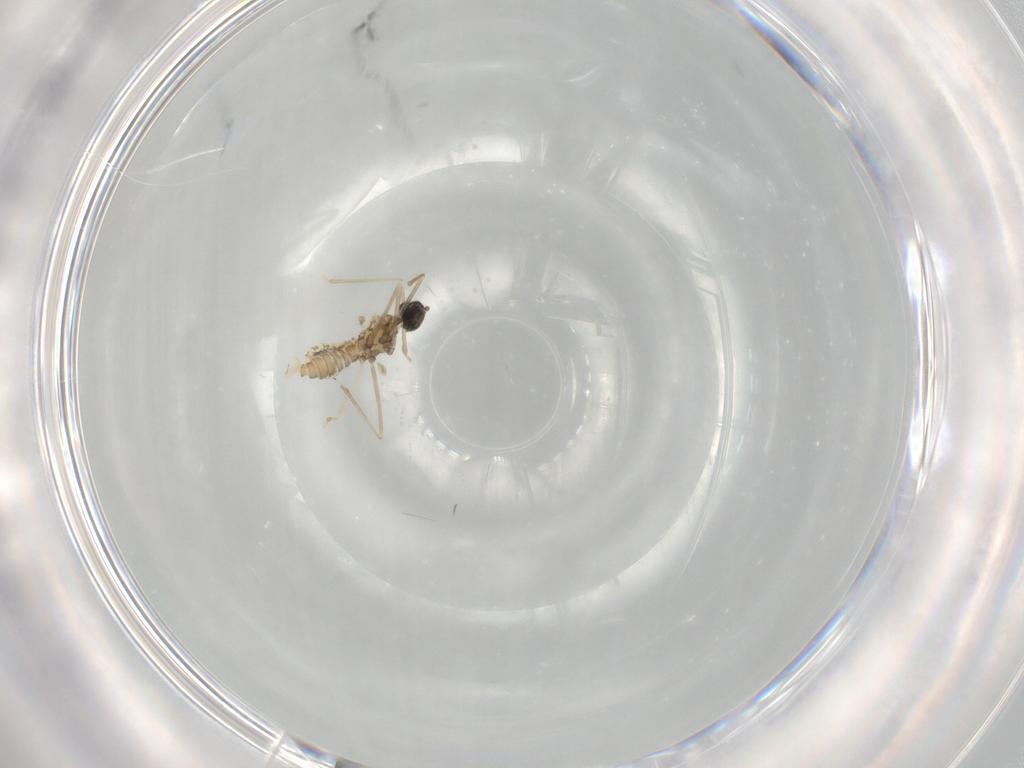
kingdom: Animalia
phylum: Arthropoda
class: Insecta
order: Diptera
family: Cecidomyiidae
